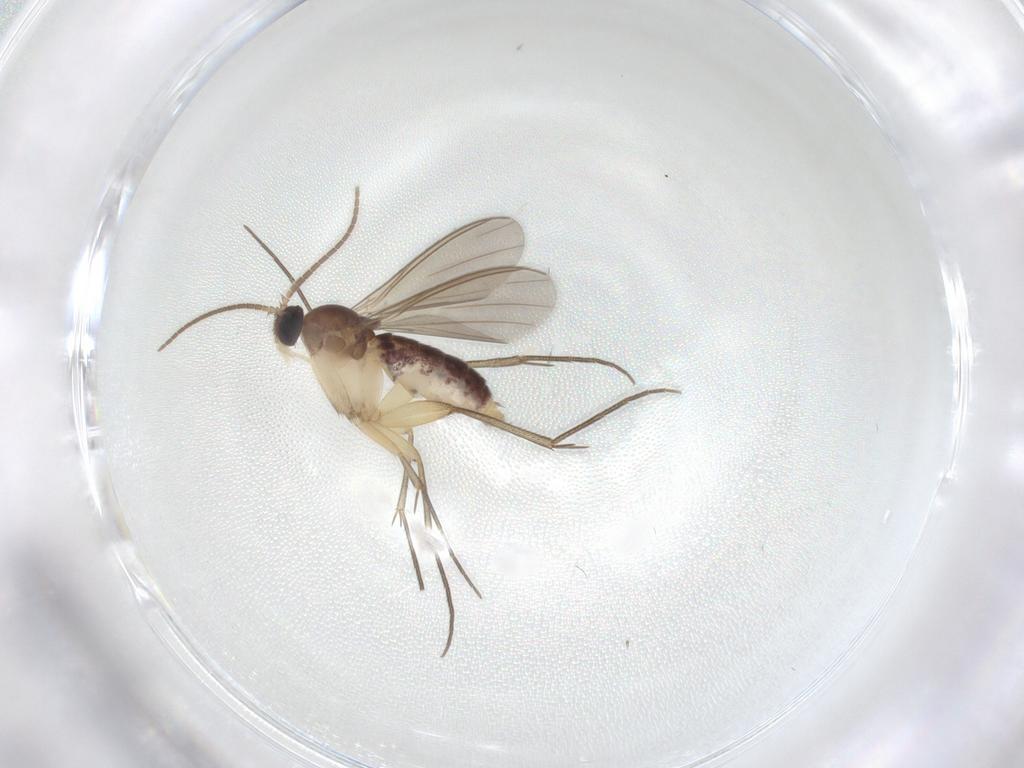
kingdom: Animalia
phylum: Arthropoda
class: Insecta
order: Diptera
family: Mycetophilidae
